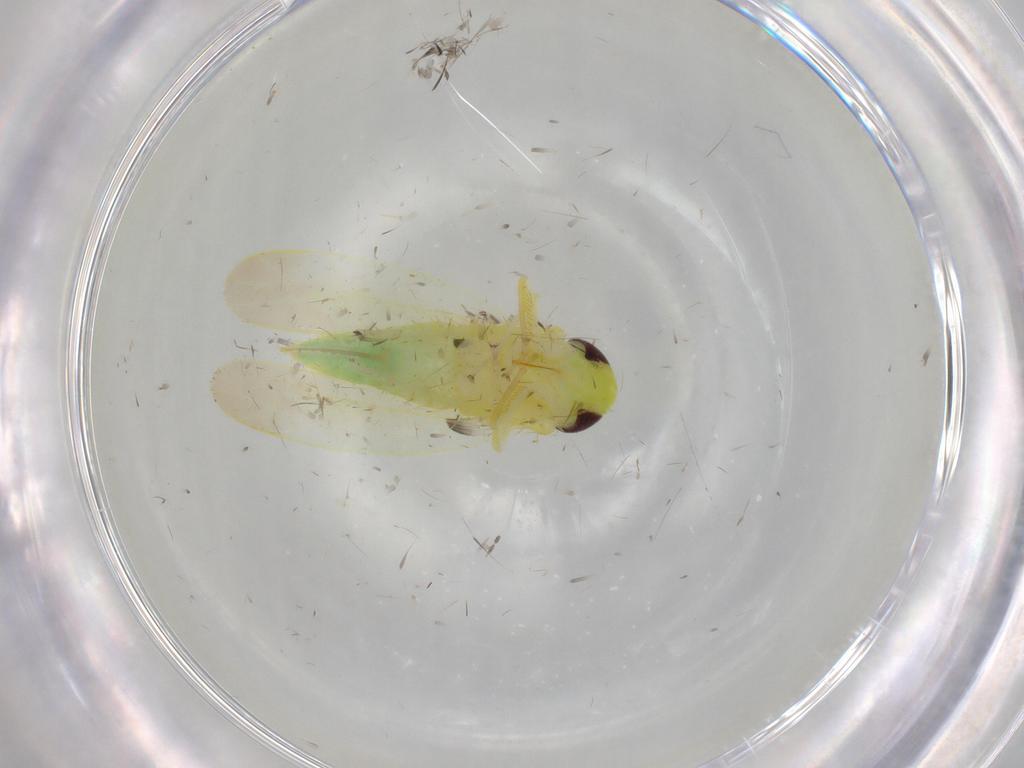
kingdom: Animalia
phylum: Arthropoda
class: Insecta
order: Hemiptera
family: Cicadellidae
